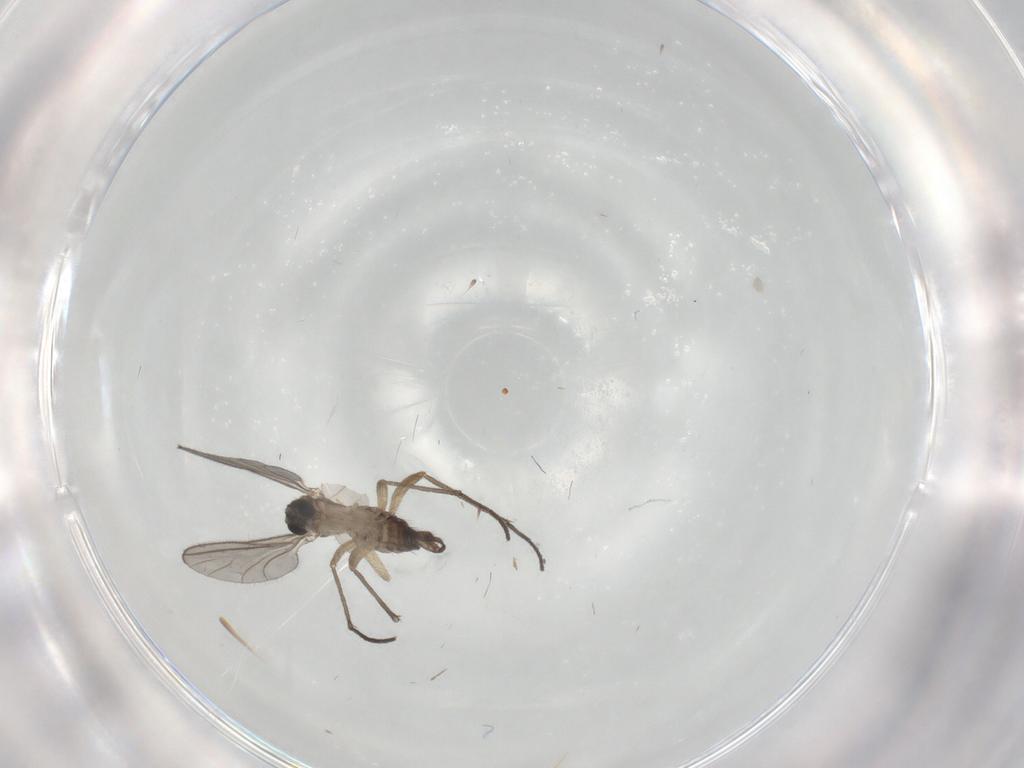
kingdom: Animalia
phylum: Arthropoda
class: Insecta
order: Diptera
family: Limoniidae
